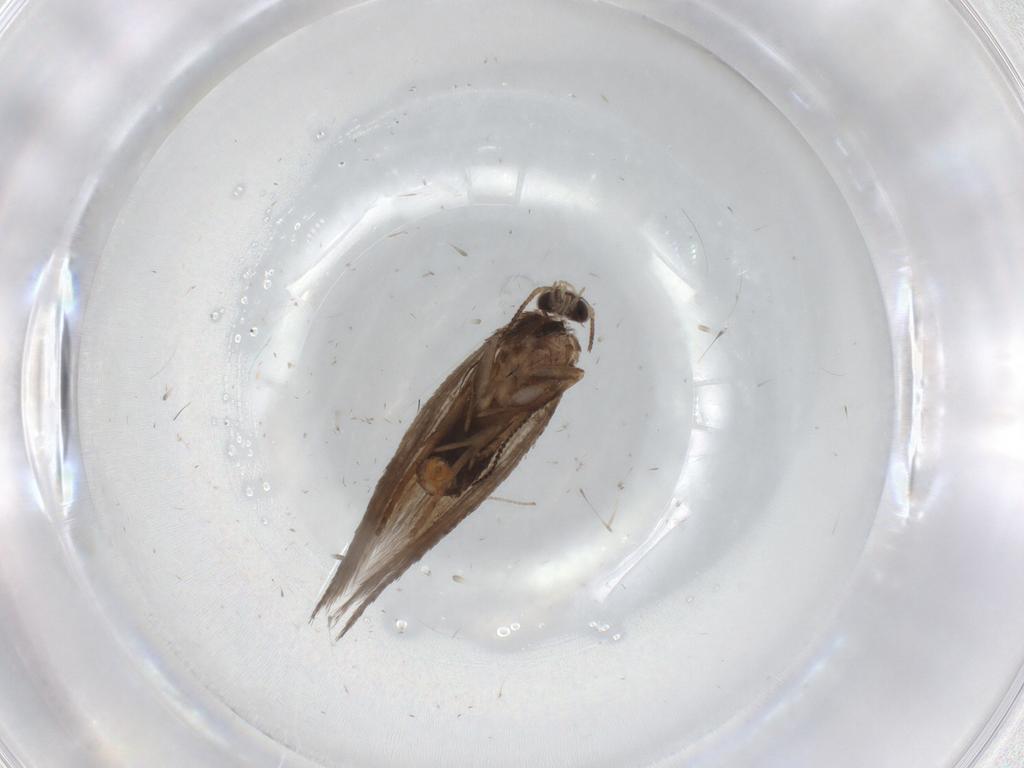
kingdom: Animalia
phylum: Arthropoda
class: Insecta
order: Lepidoptera
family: Nepticulidae
